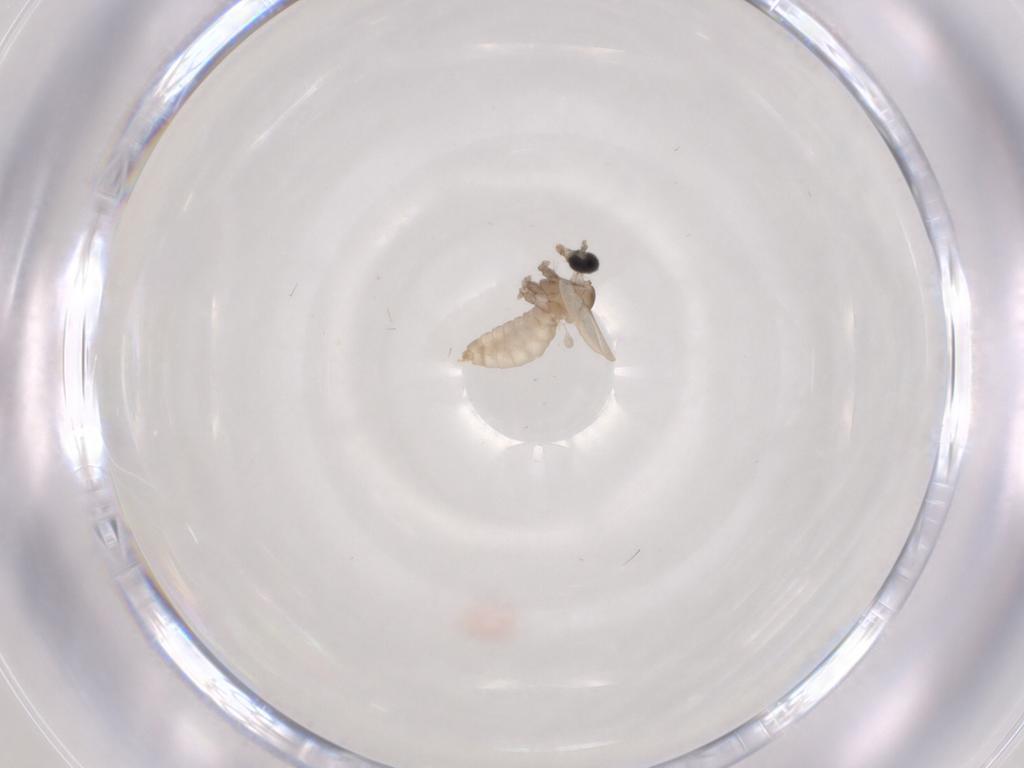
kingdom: Animalia
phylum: Arthropoda
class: Insecta
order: Diptera
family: Cecidomyiidae
